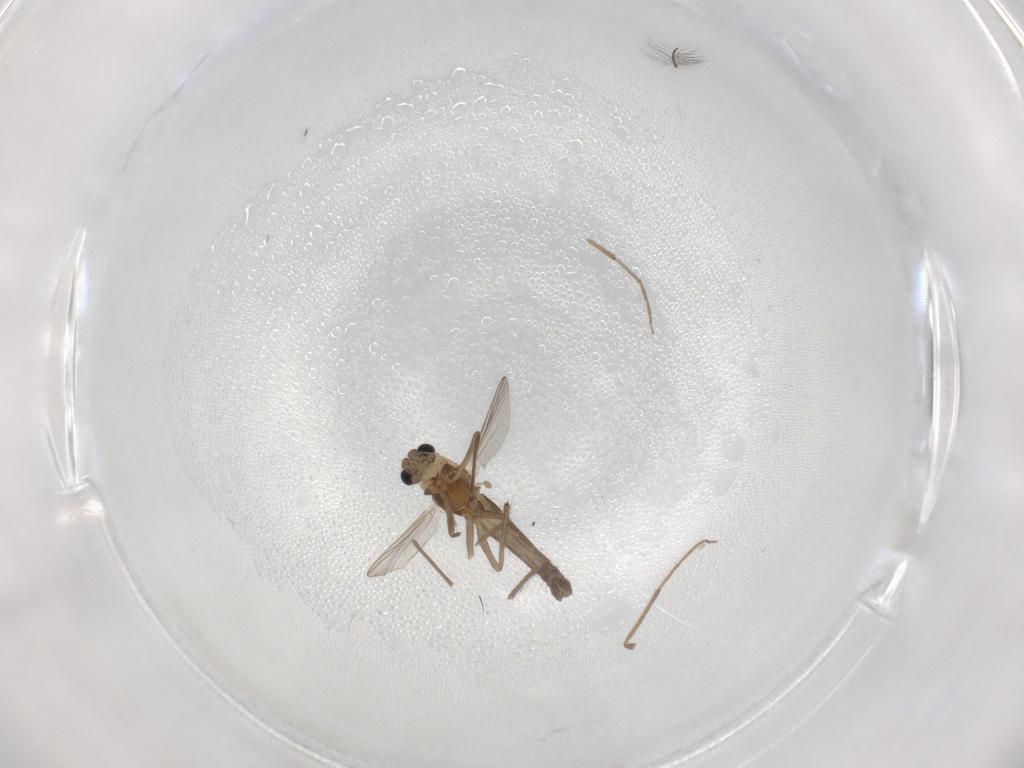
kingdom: Animalia
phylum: Arthropoda
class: Insecta
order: Diptera
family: Chironomidae
